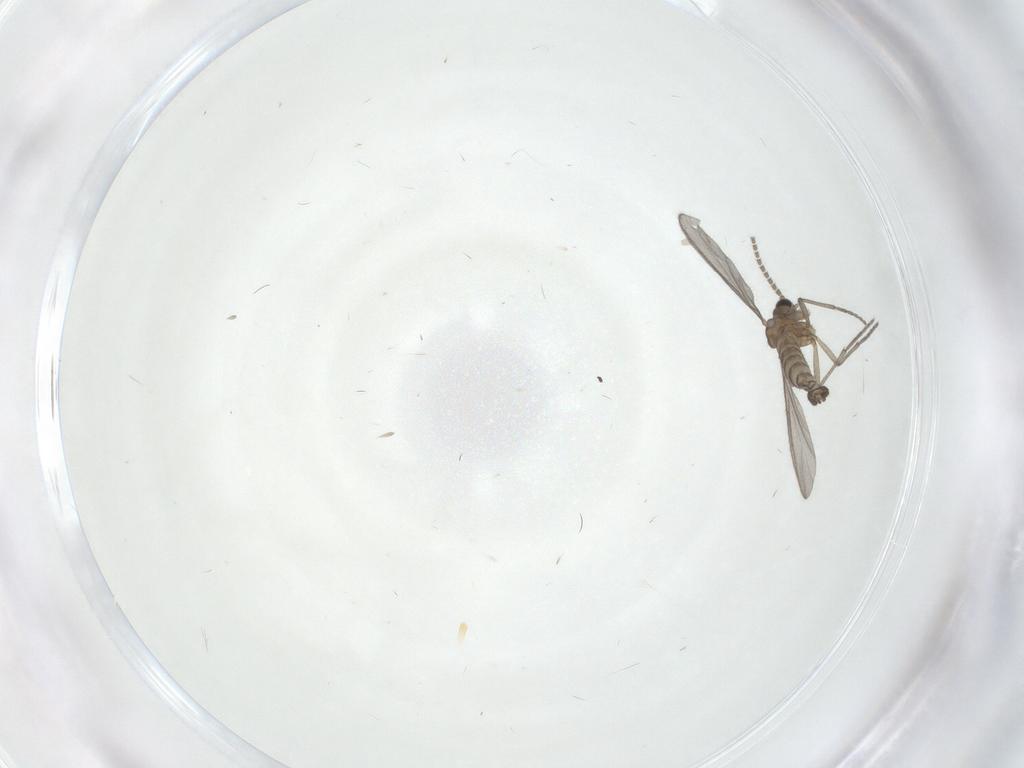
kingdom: Animalia
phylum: Arthropoda
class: Insecta
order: Diptera
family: Sciaridae
